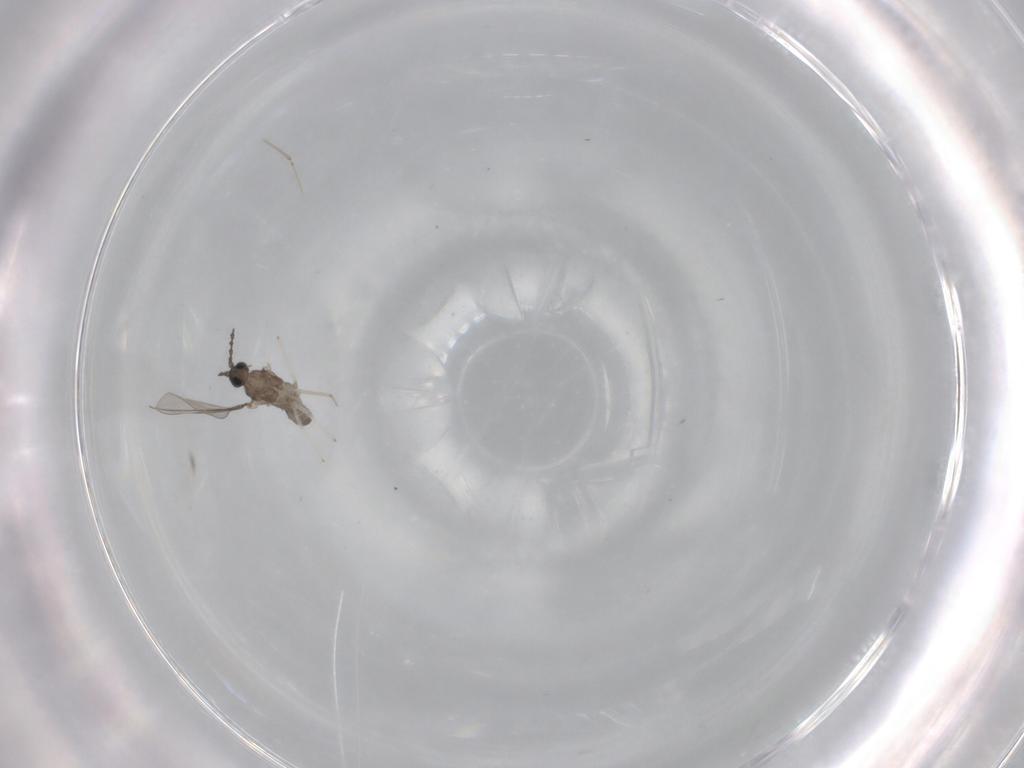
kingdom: Animalia
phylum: Arthropoda
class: Insecta
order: Diptera
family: Cecidomyiidae
